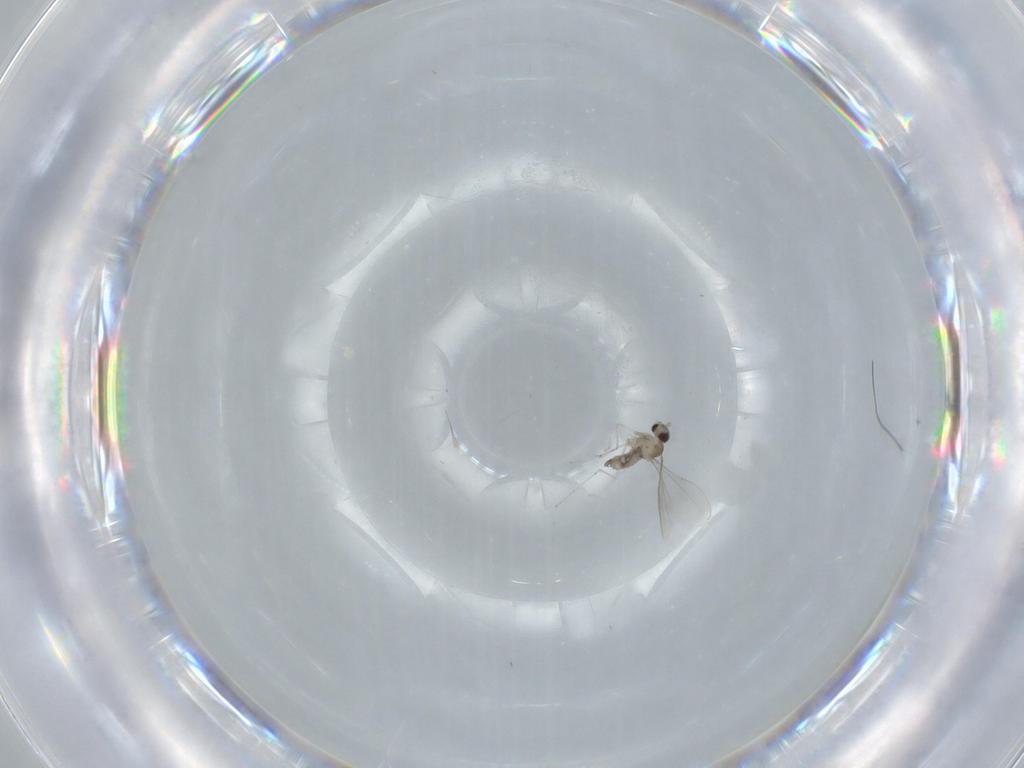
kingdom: Animalia
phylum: Arthropoda
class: Insecta
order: Diptera
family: Cecidomyiidae
